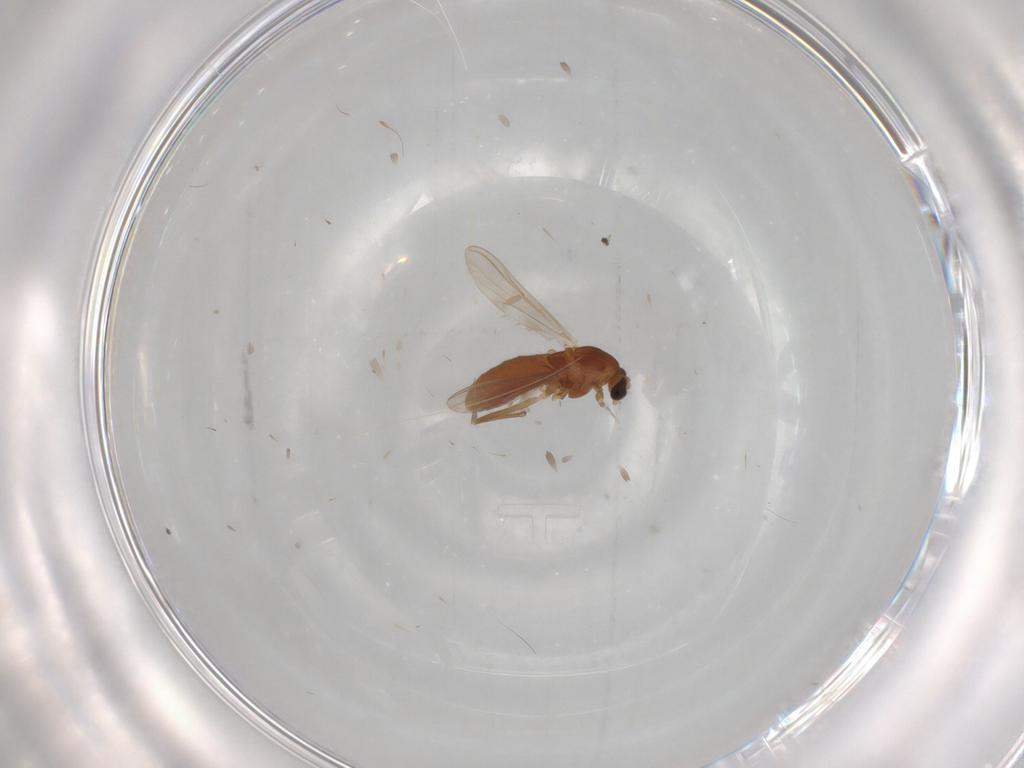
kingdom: Animalia
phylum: Arthropoda
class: Insecta
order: Diptera
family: Chironomidae
